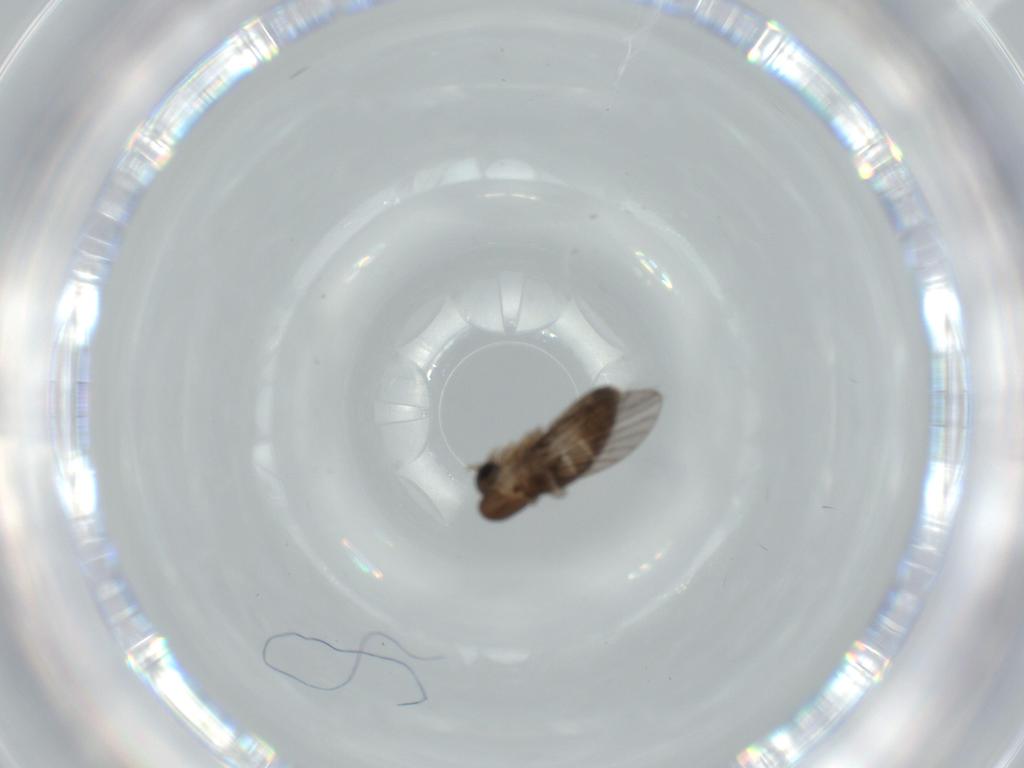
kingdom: Animalia
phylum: Arthropoda
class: Insecta
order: Diptera
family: Psychodidae
